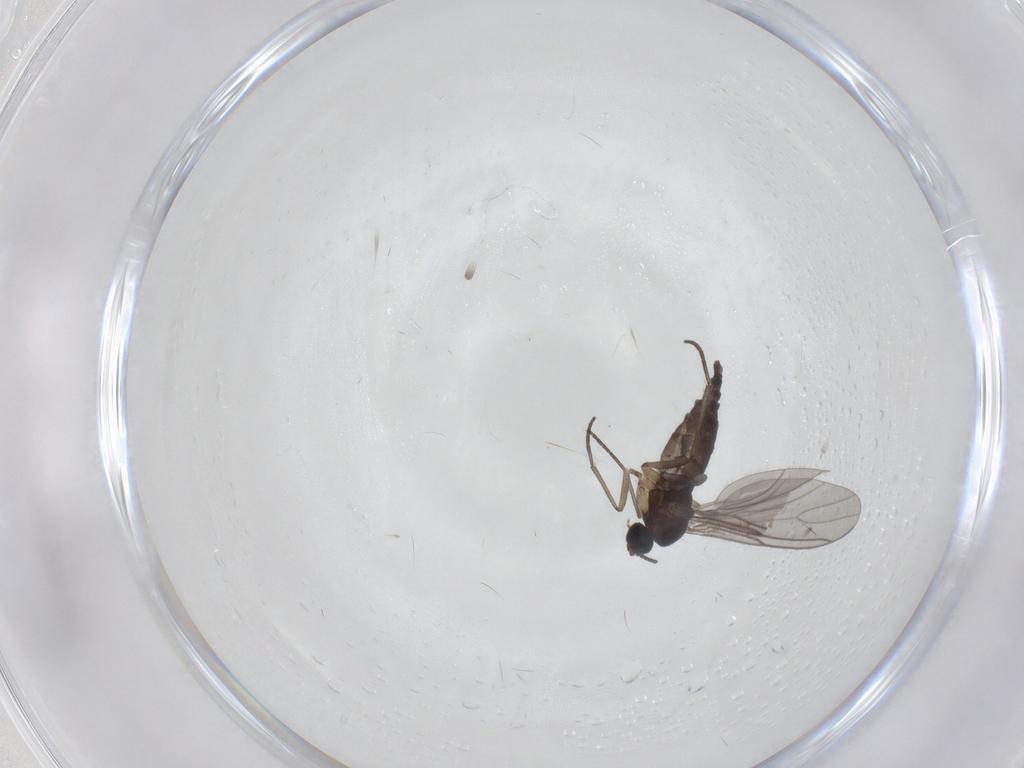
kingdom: Animalia
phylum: Arthropoda
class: Insecta
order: Diptera
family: Sciaridae
